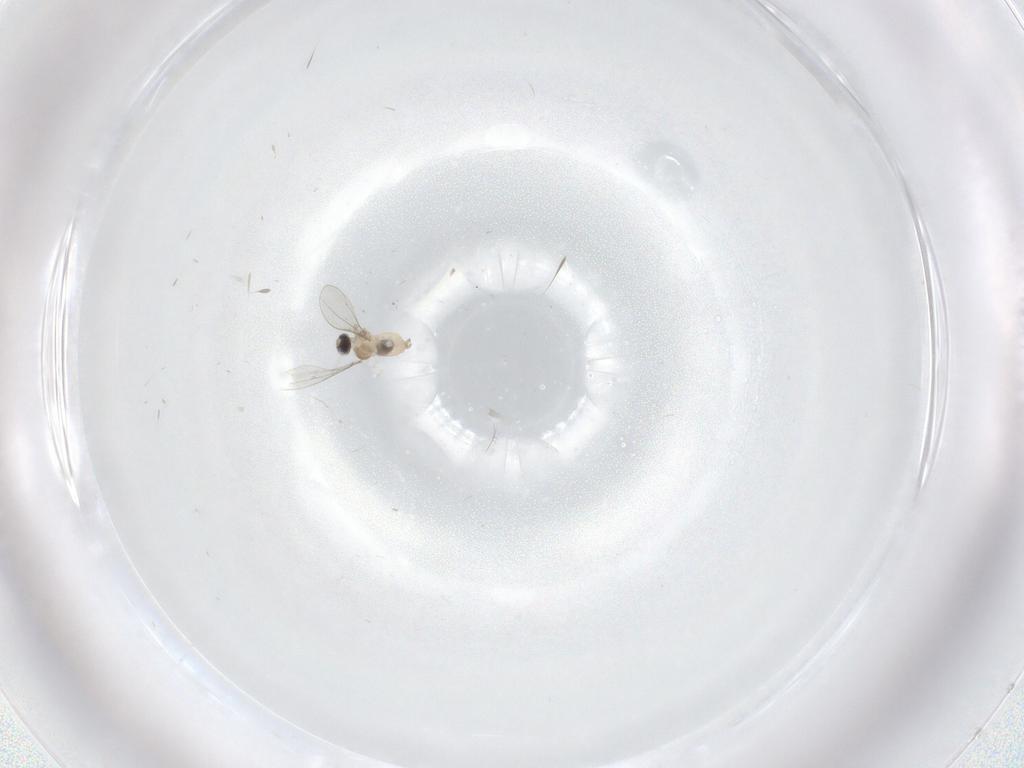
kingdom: Animalia
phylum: Arthropoda
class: Insecta
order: Diptera
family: Cecidomyiidae
